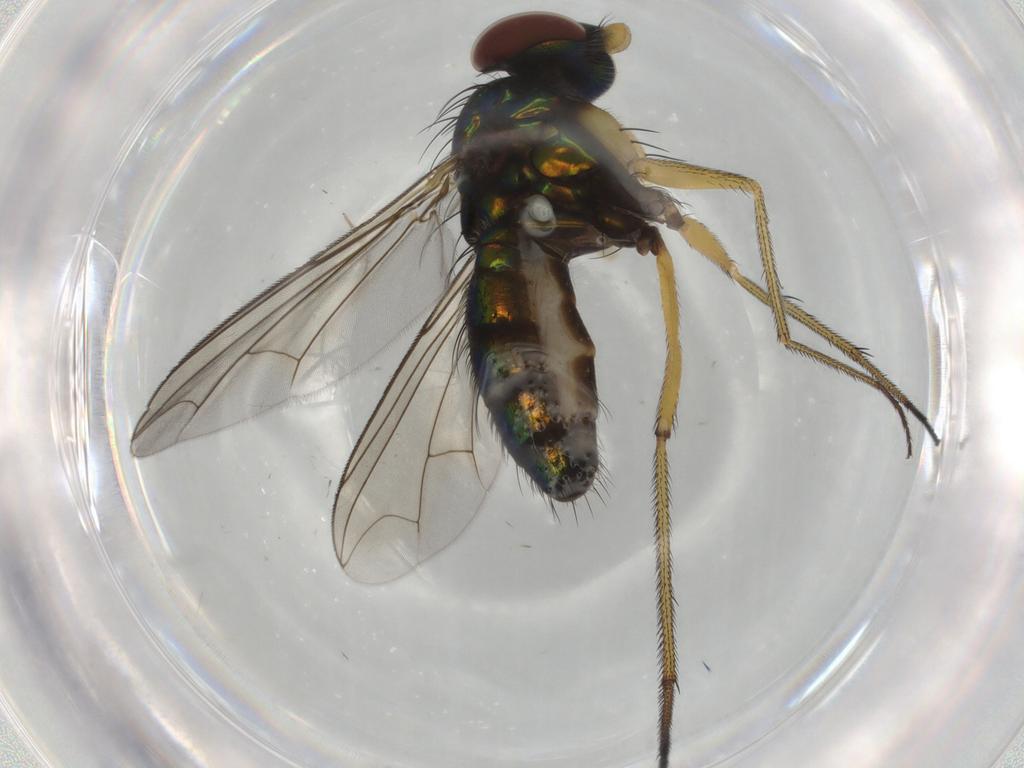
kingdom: Animalia
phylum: Arthropoda
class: Insecta
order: Diptera
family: Dolichopodidae
